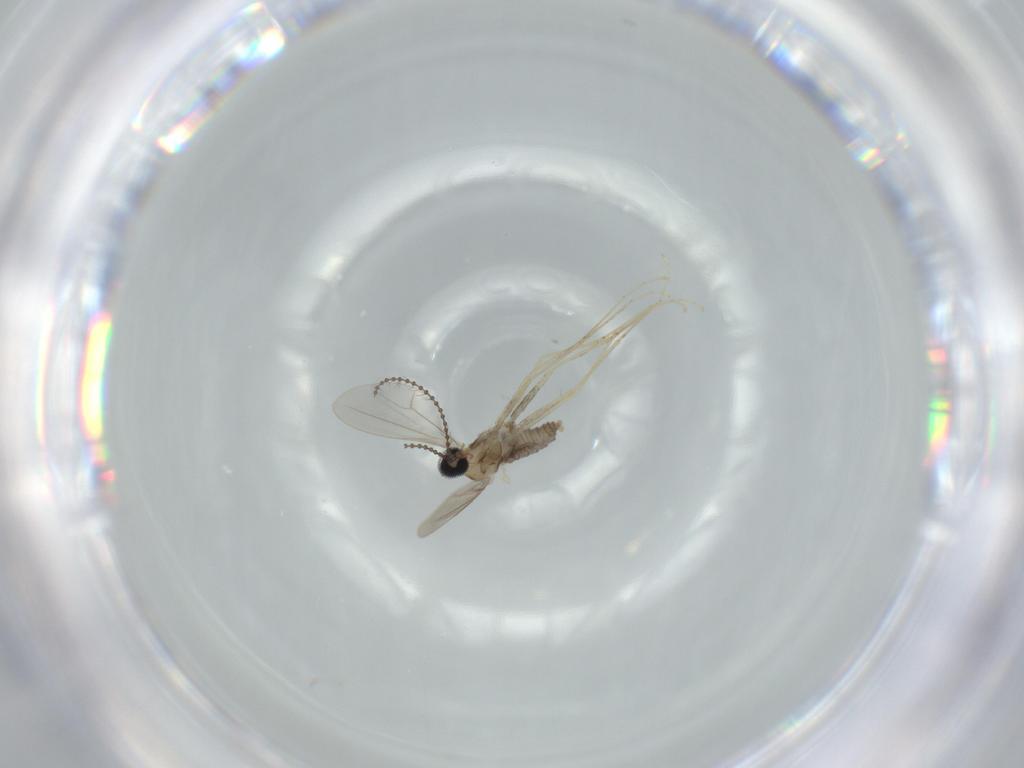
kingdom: Animalia
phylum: Arthropoda
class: Insecta
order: Diptera
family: Cecidomyiidae
